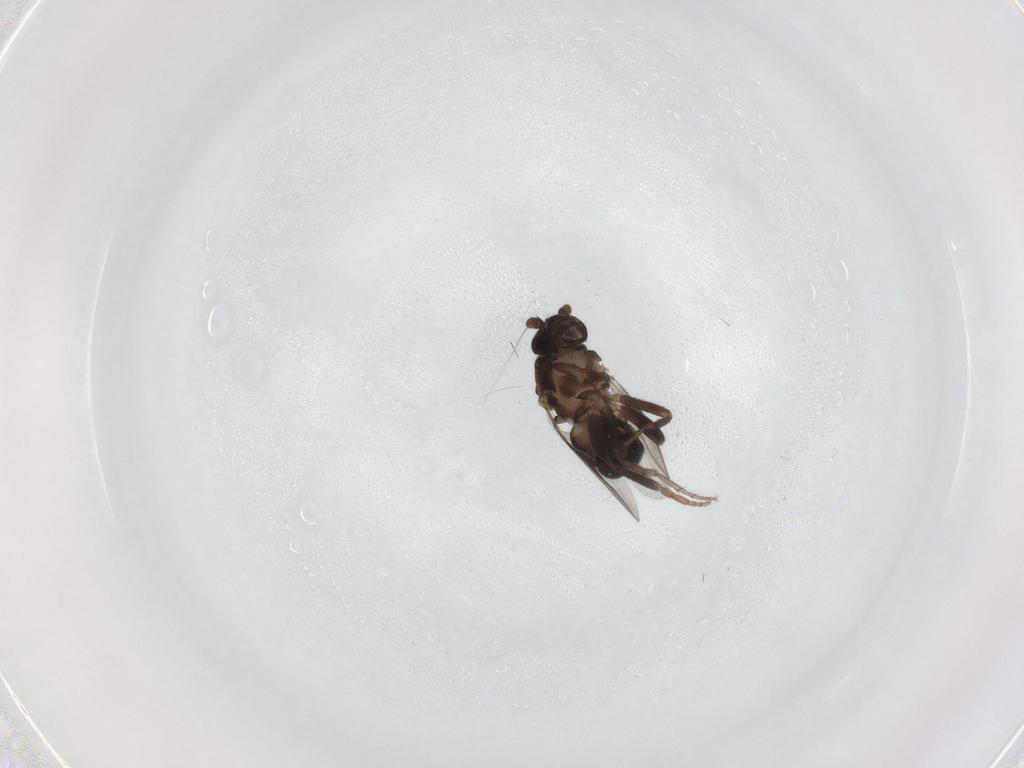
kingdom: Animalia
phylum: Arthropoda
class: Insecta
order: Diptera
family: Sphaeroceridae
